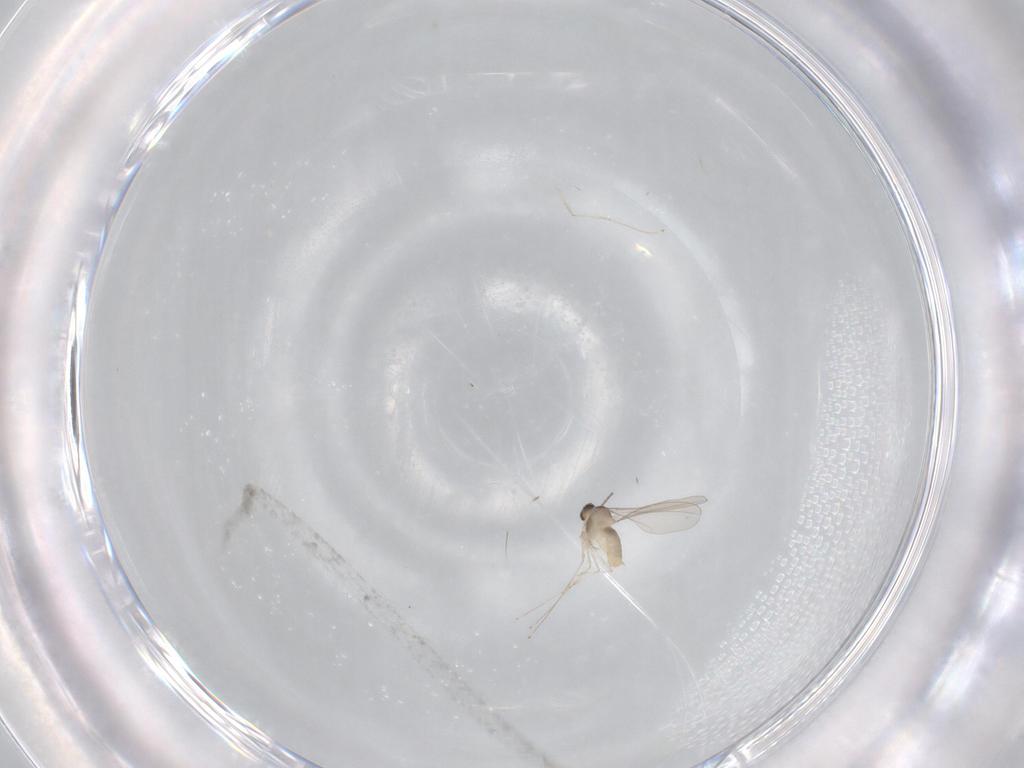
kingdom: Animalia
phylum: Arthropoda
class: Insecta
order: Diptera
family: Cecidomyiidae
